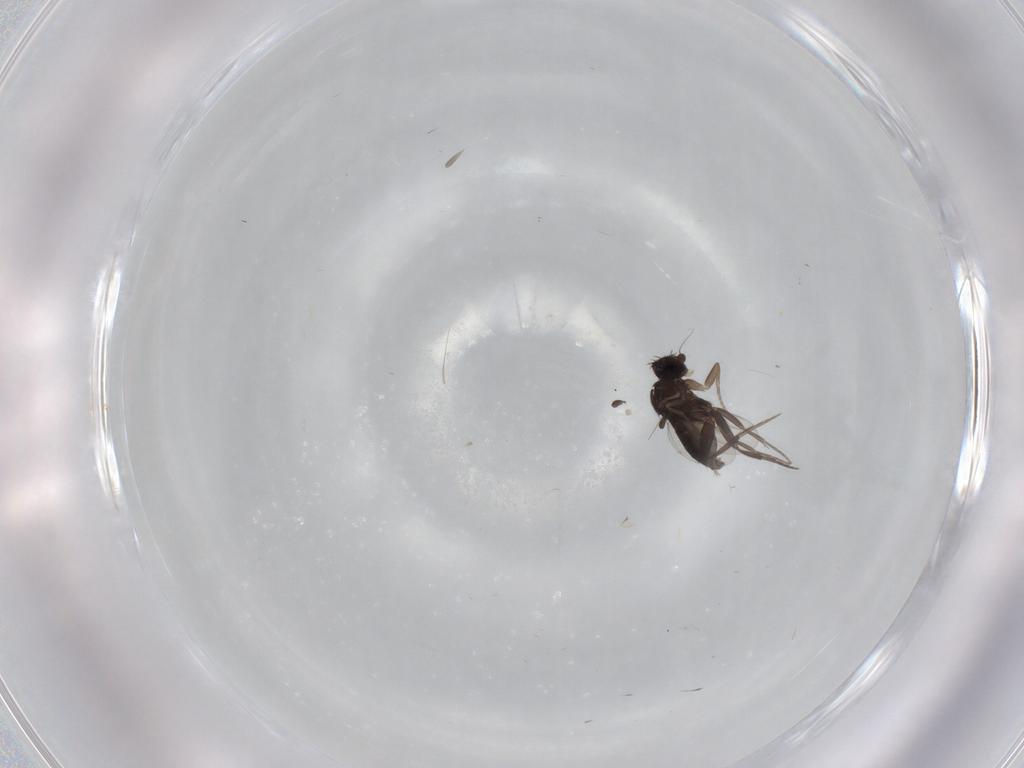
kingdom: Animalia
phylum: Arthropoda
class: Insecta
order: Diptera
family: Phoridae
